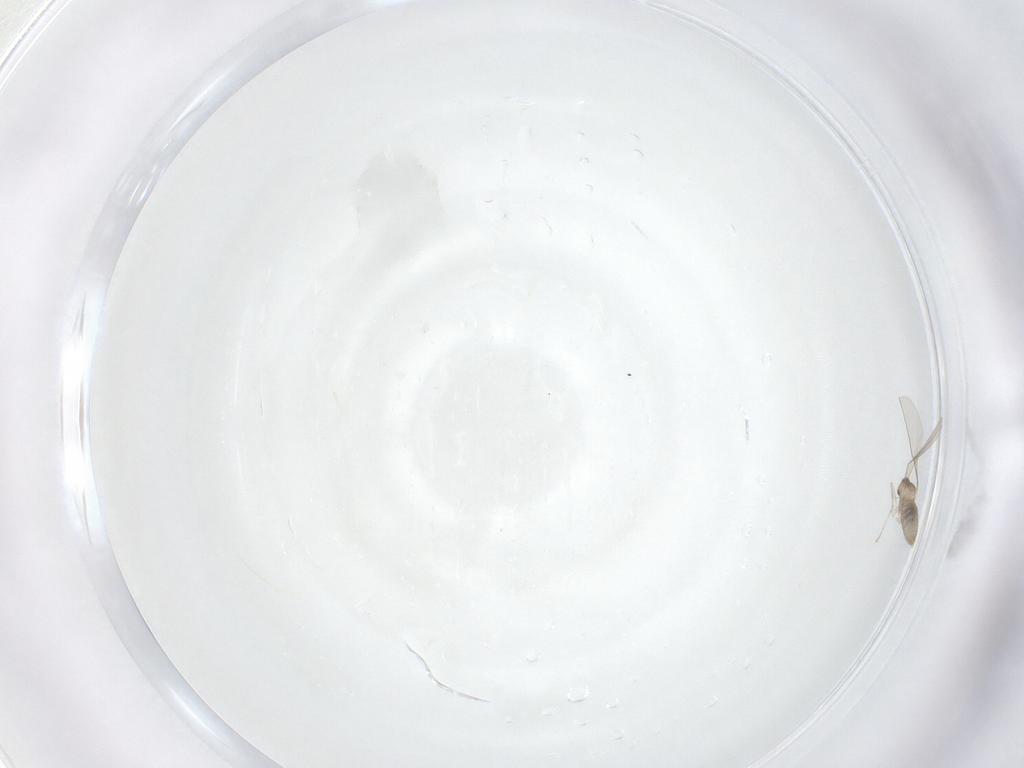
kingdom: Animalia
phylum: Arthropoda
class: Insecta
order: Diptera
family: Cecidomyiidae
